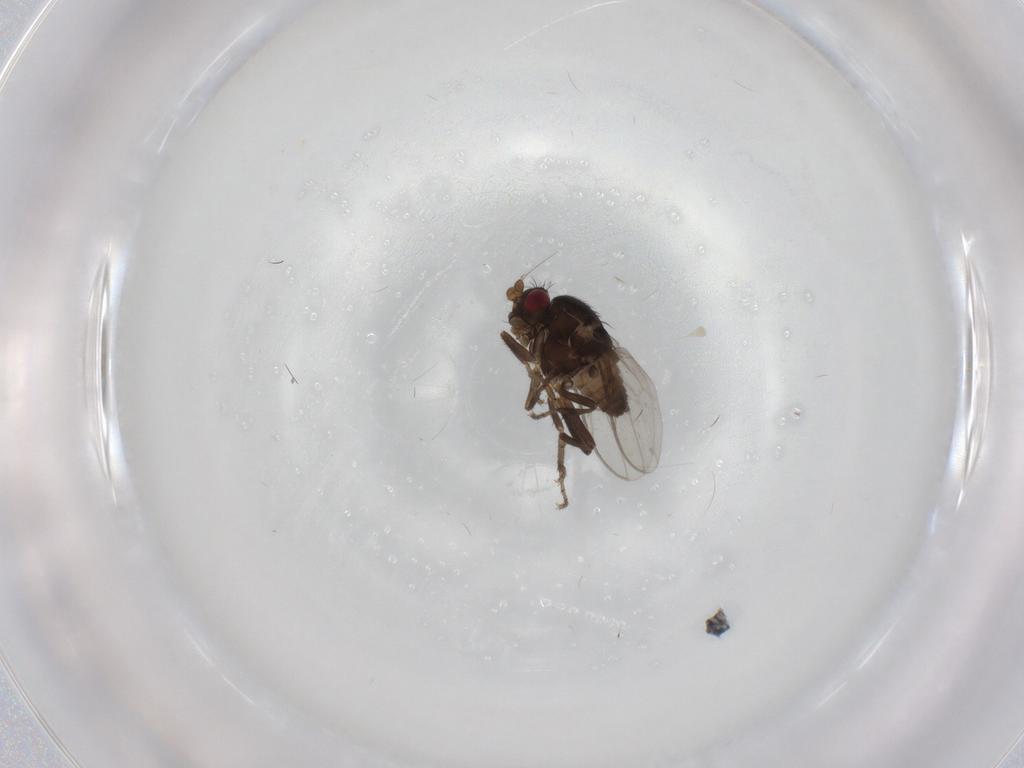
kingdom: Animalia
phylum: Arthropoda
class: Insecta
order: Diptera
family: Sphaeroceridae
